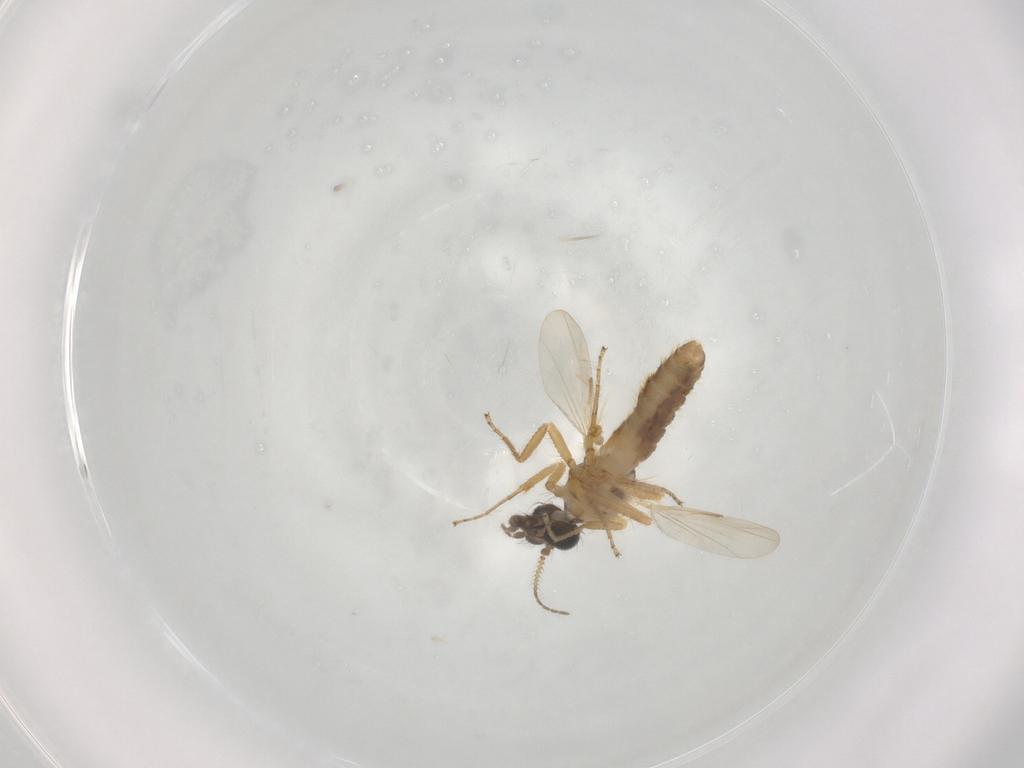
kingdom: Animalia
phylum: Arthropoda
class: Insecta
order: Diptera
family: Ceratopogonidae
